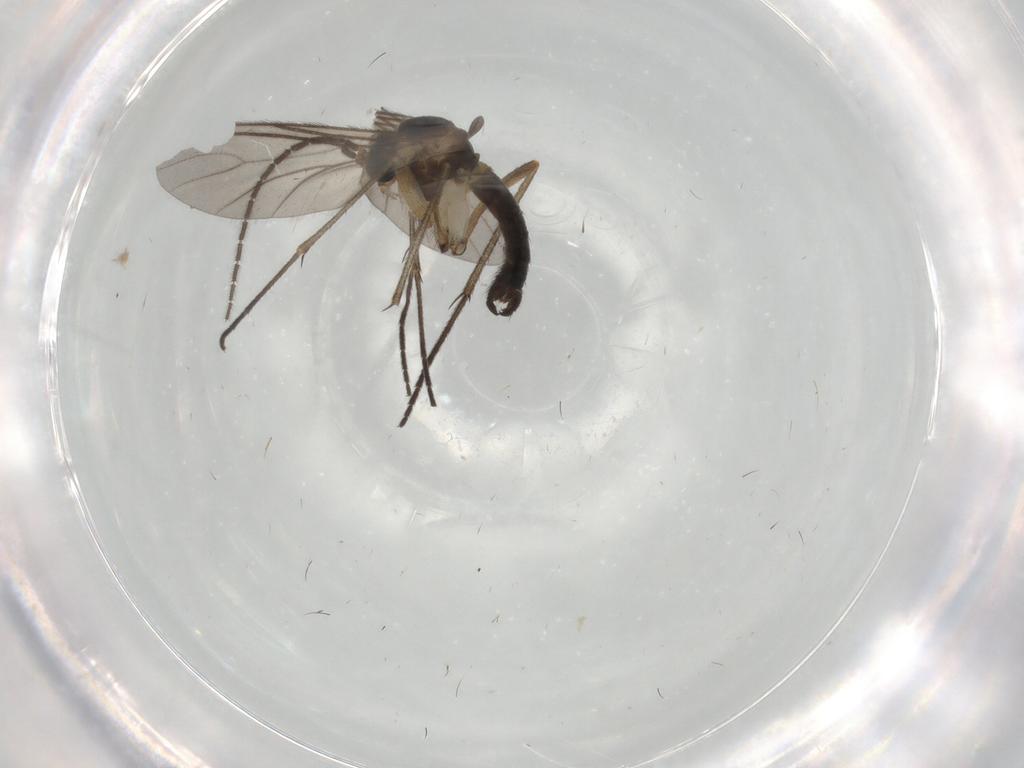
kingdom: Animalia
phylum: Arthropoda
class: Insecta
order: Diptera
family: Sciaridae
